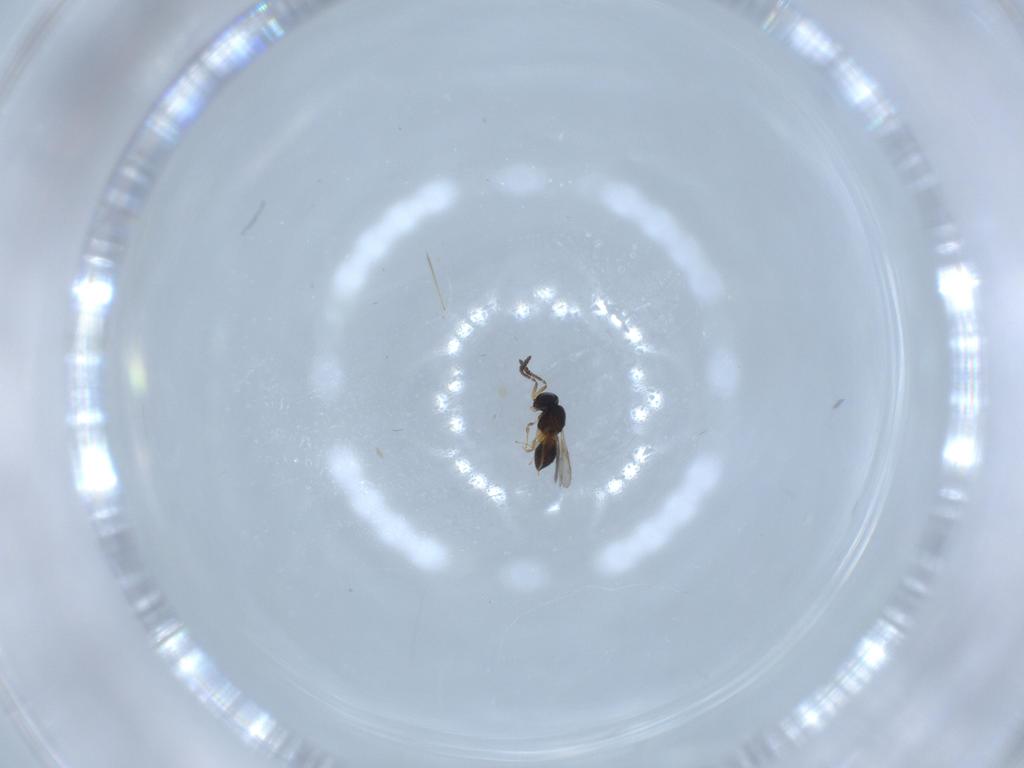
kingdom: Animalia
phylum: Arthropoda
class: Insecta
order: Hymenoptera
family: Scelionidae
